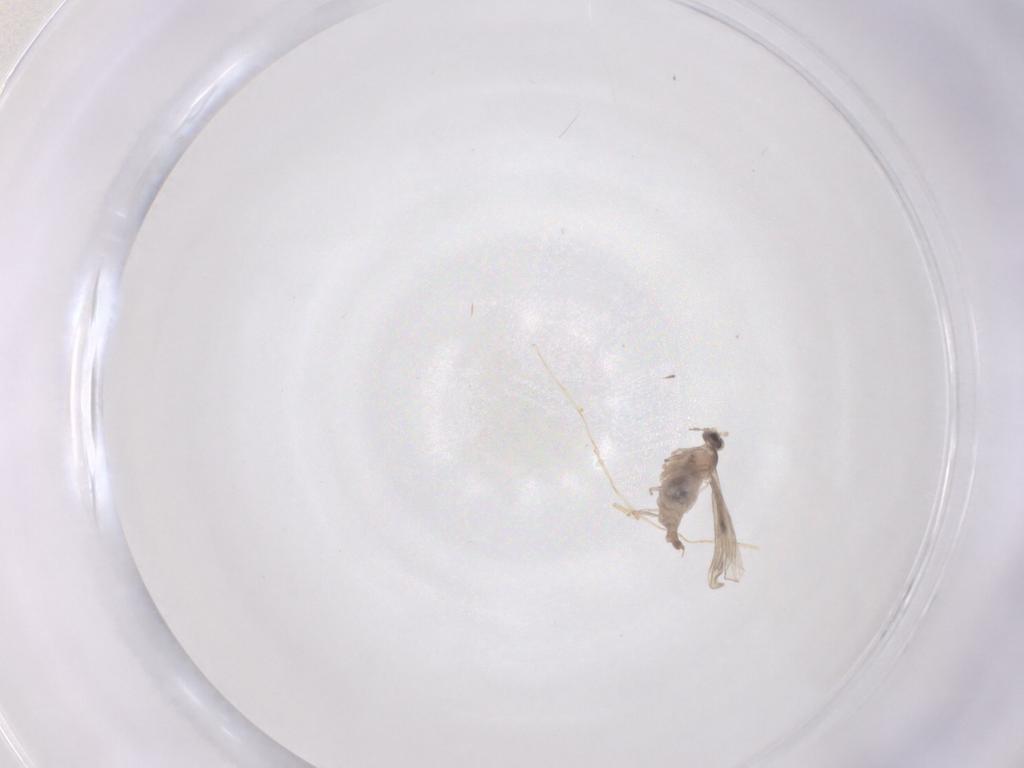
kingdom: Animalia
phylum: Arthropoda
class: Insecta
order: Diptera
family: Chironomidae
